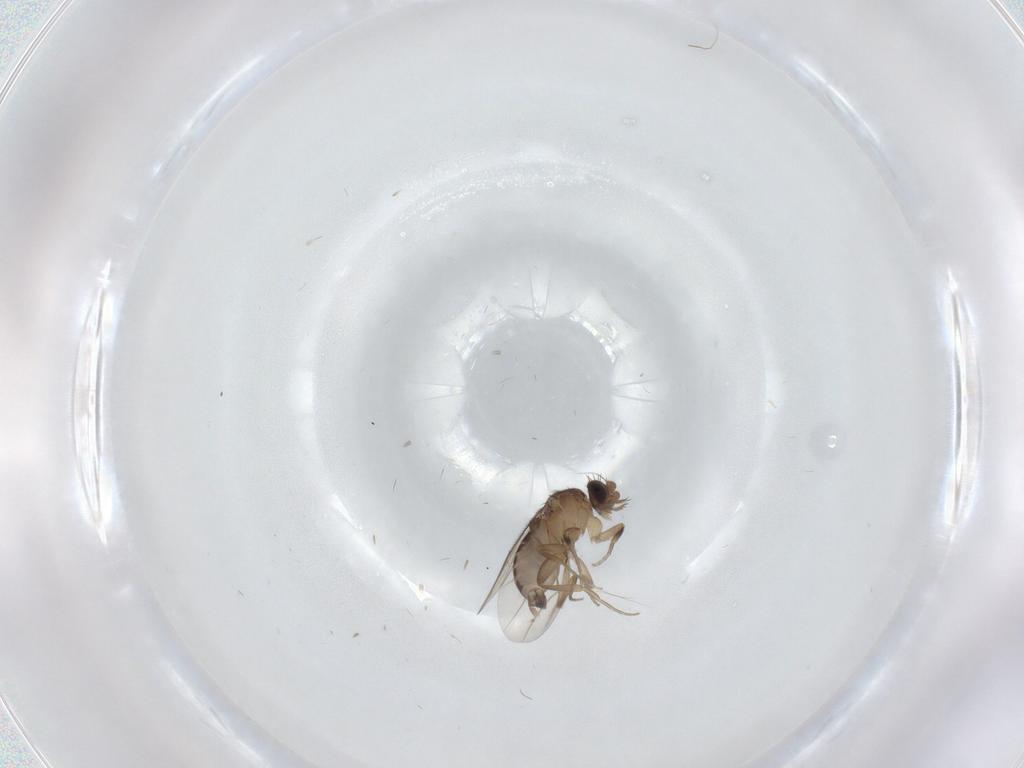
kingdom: Animalia
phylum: Arthropoda
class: Insecta
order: Diptera
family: Phoridae
